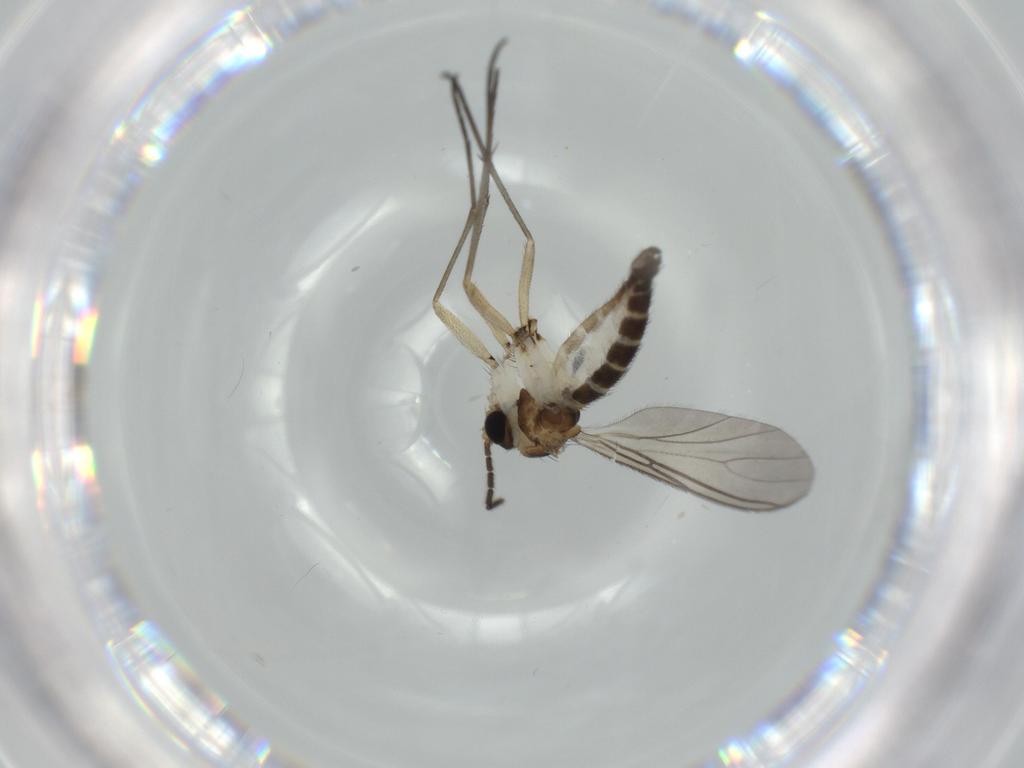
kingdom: Animalia
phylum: Arthropoda
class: Insecta
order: Diptera
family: Sciaridae
